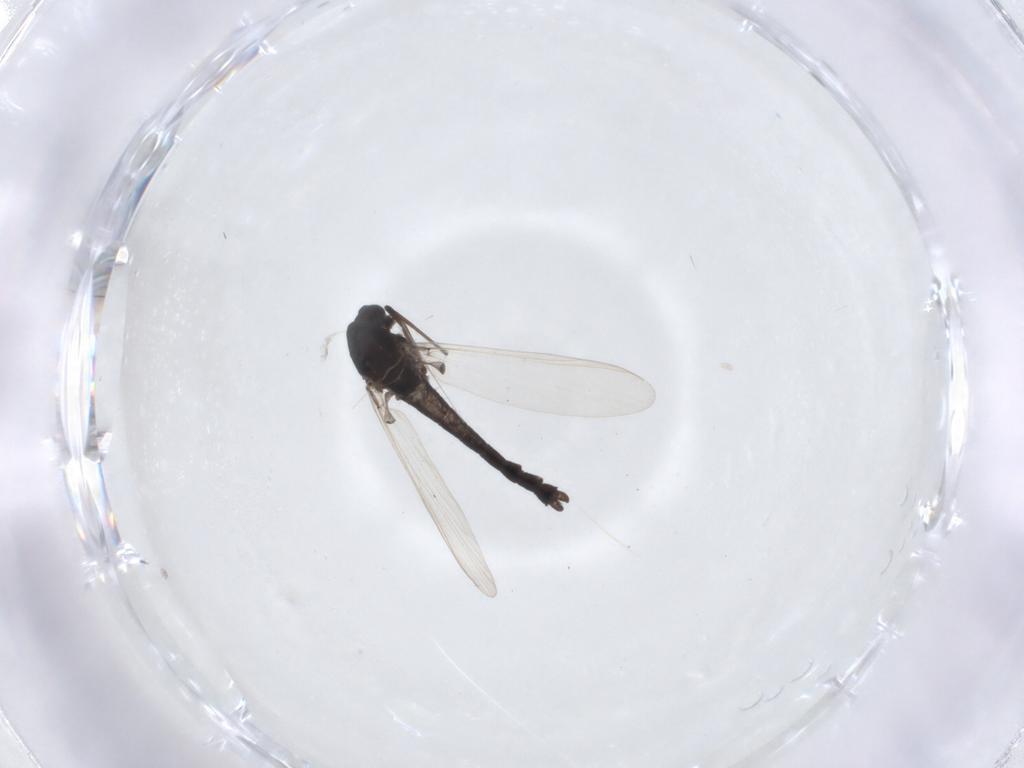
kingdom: Animalia
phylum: Arthropoda
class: Insecta
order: Diptera
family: Chironomidae
